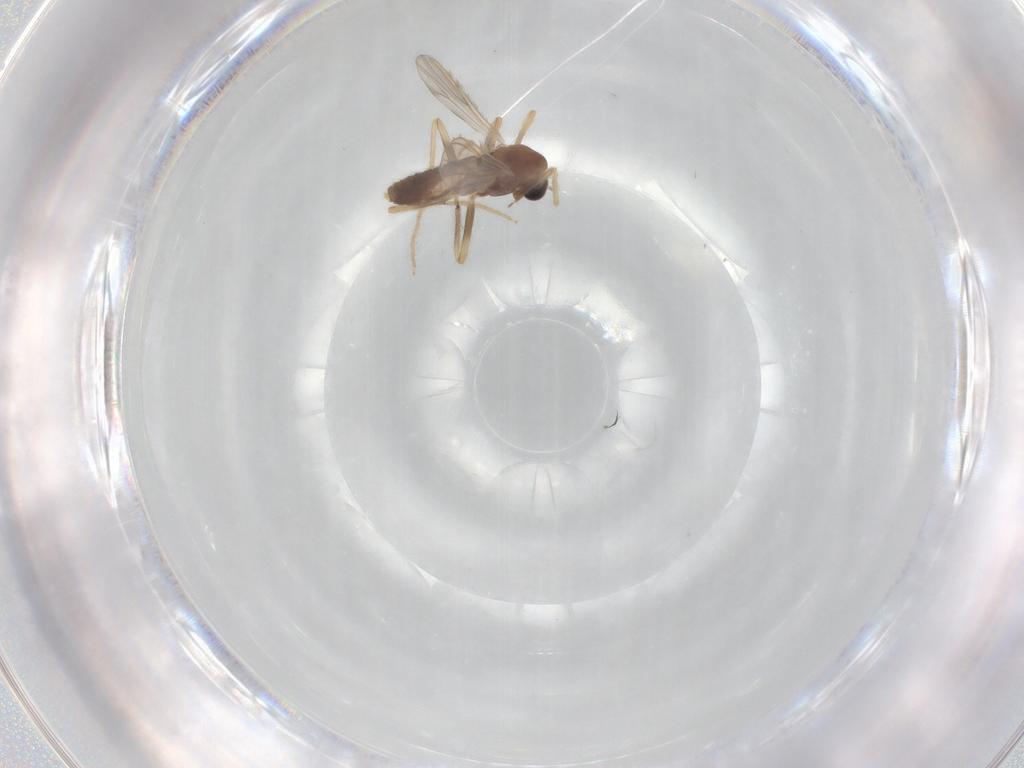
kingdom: Animalia
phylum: Arthropoda
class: Insecta
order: Diptera
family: Chironomidae
